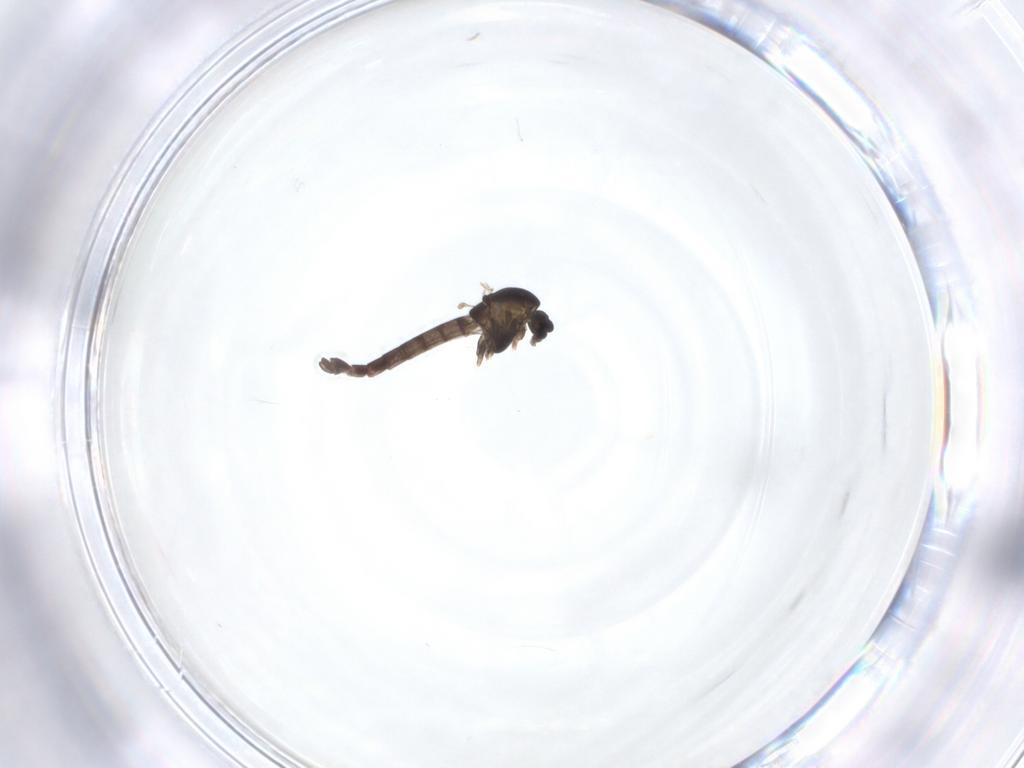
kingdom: Animalia
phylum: Arthropoda
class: Insecta
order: Diptera
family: Chironomidae
